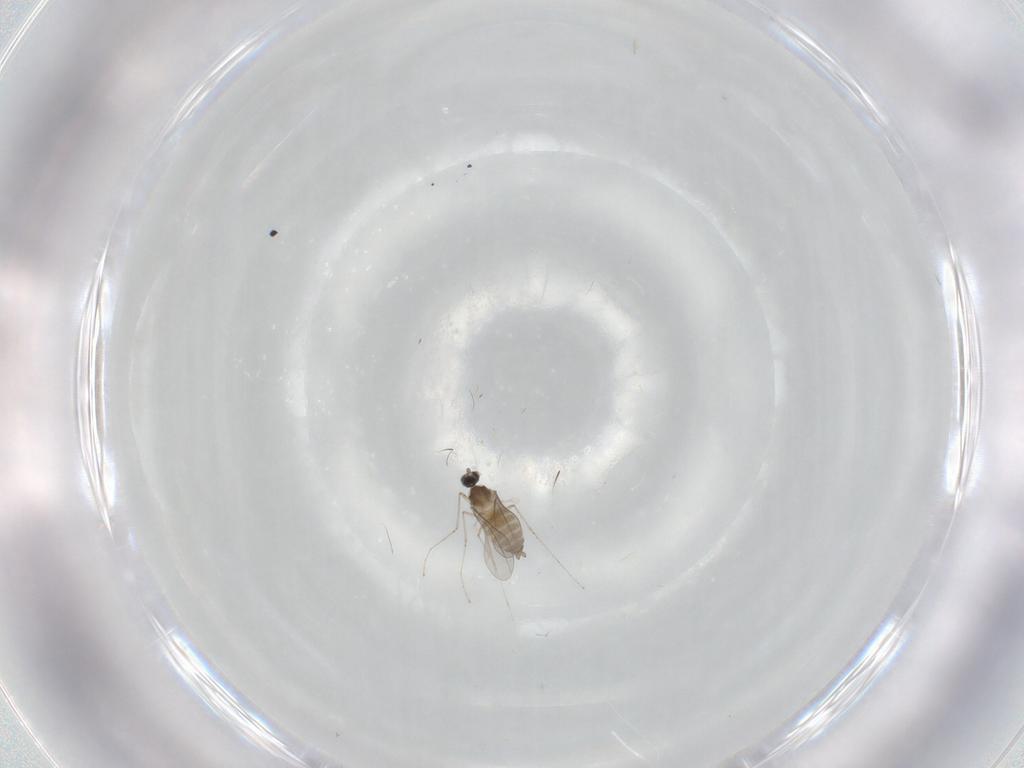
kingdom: Animalia
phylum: Arthropoda
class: Insecta
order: Diptera
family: Cecidomyiidae
